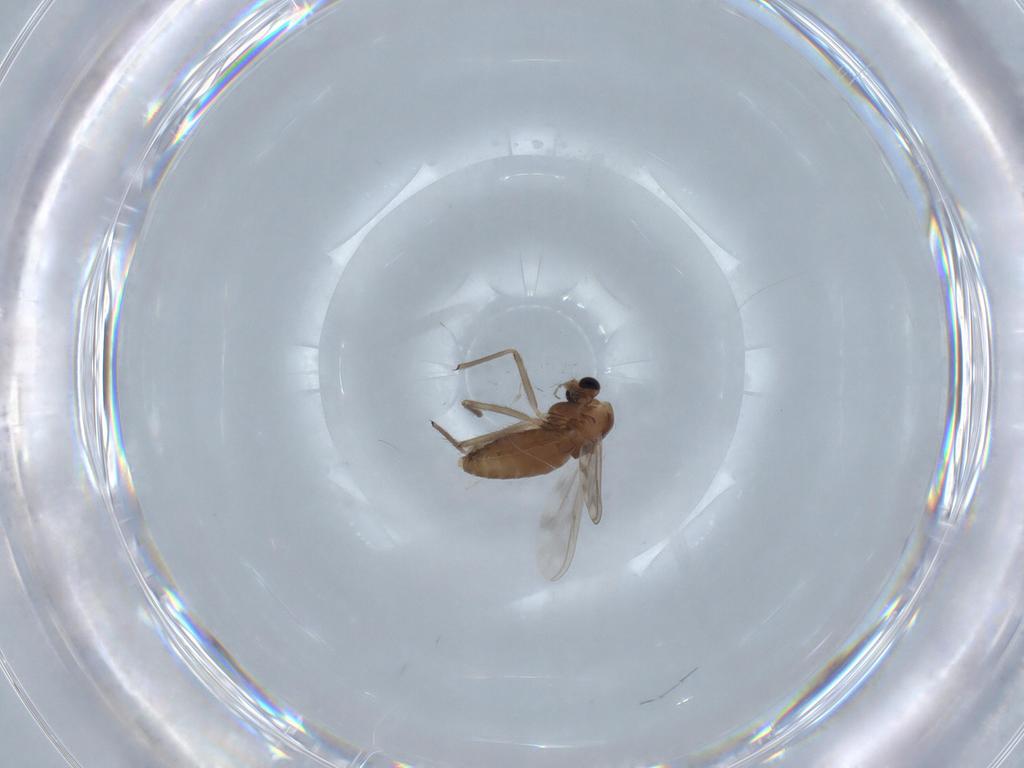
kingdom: Animalia
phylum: Arthropoda
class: Insecta
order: Diptera
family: Chironomidae
